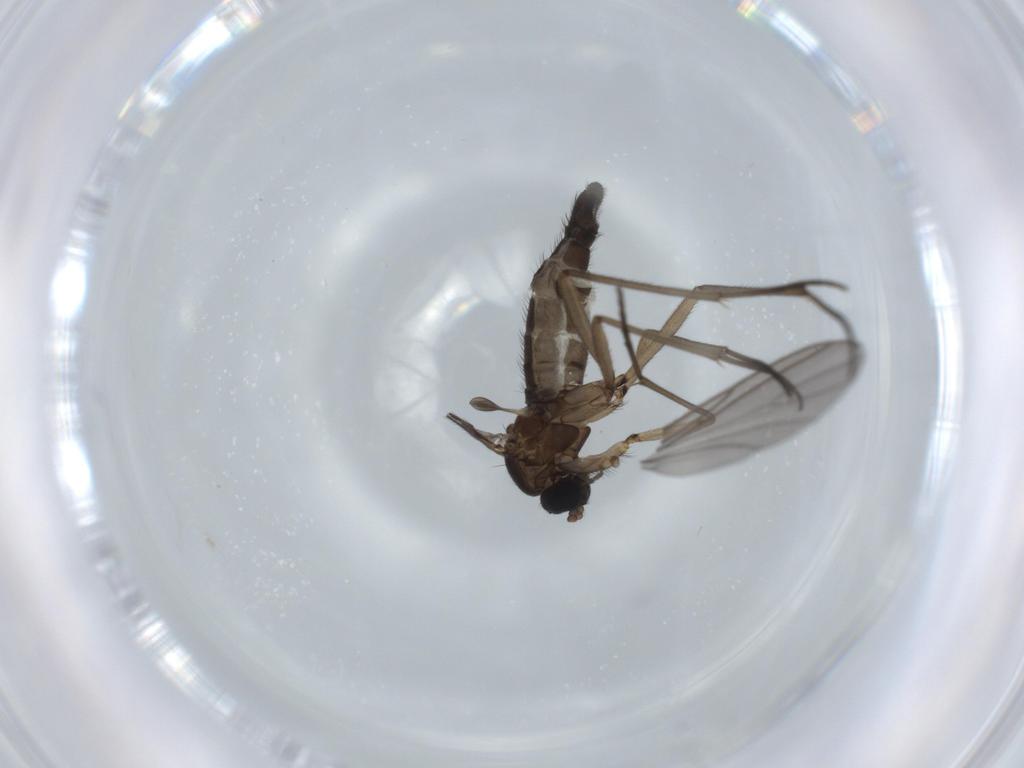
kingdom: Animalia
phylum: Arthropoda
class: Insecta
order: Diptera
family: Sciaridae
